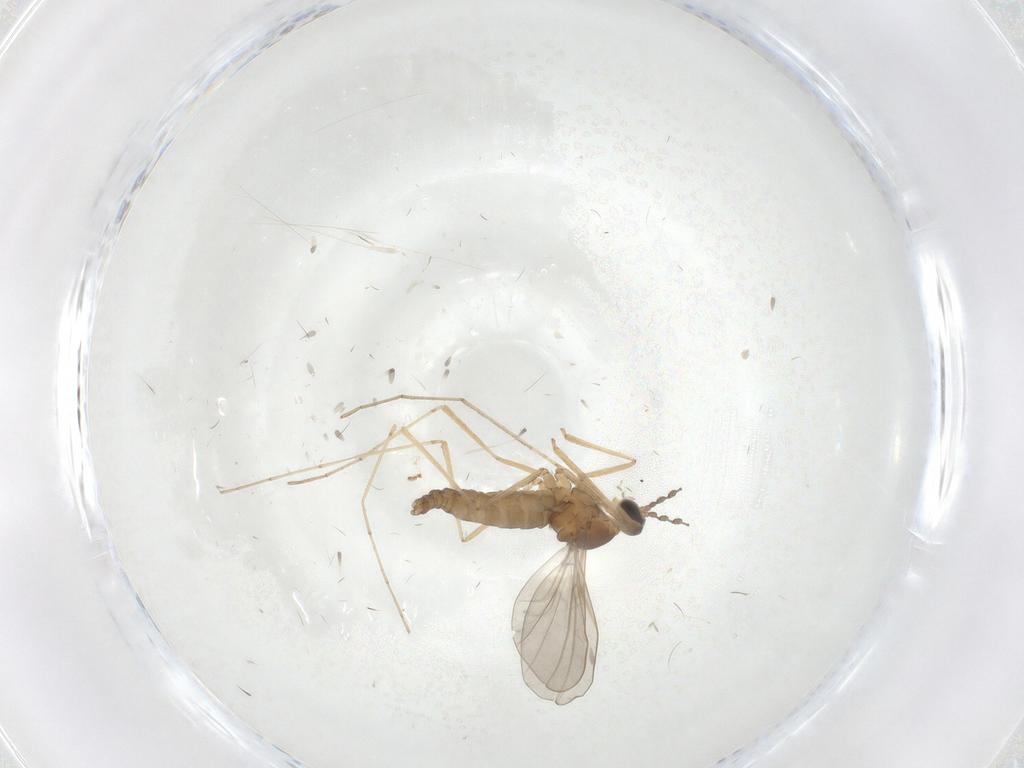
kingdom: Animalia
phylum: Arthropoda
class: Insecta
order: Diptera
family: Cecidomyiidae
